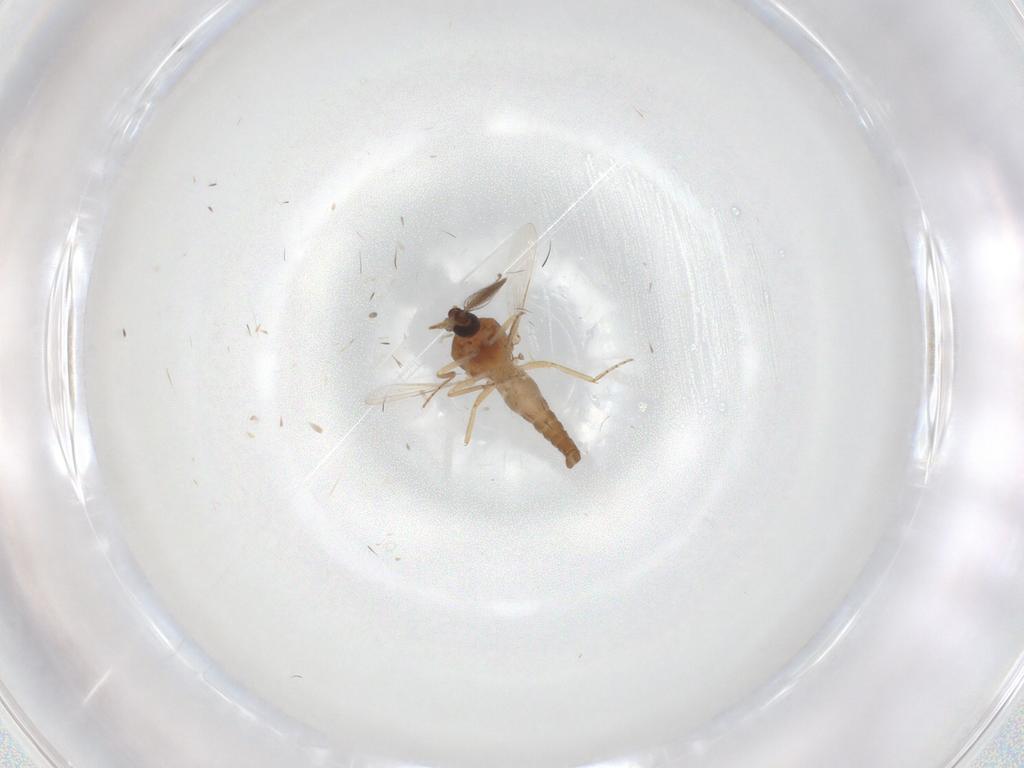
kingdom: Animalia
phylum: Arthropoda
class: Insecta
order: Diptera
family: Ceratopogonidae
